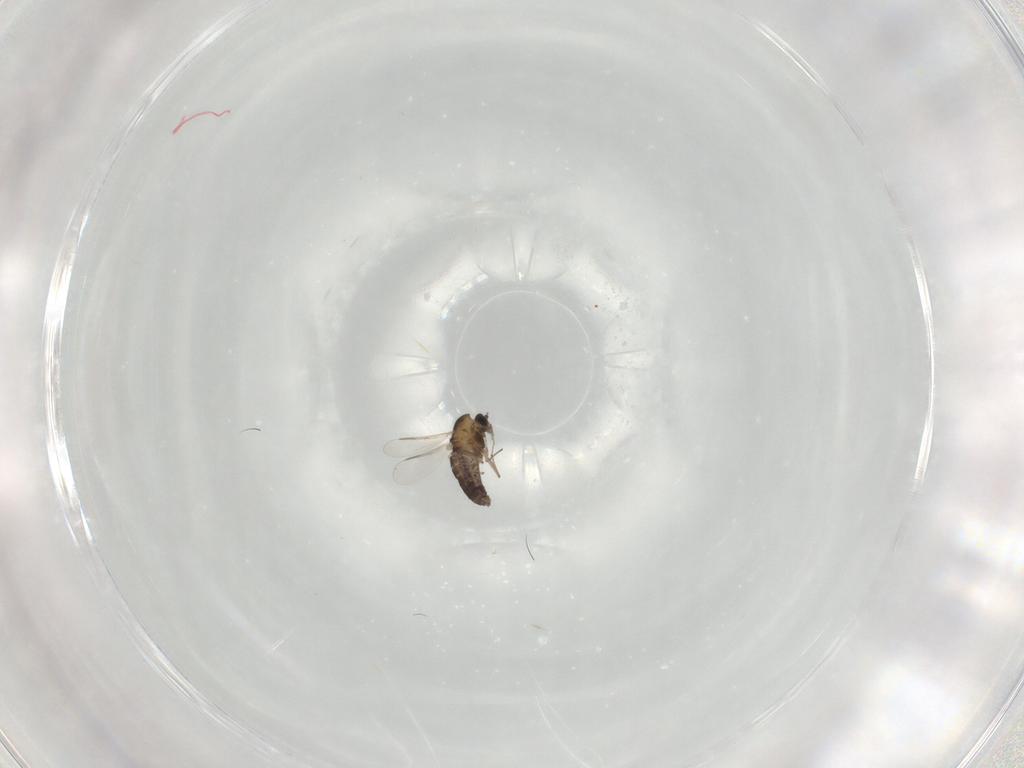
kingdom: Animalia
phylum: Arthropoda
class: Insecta
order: Diptera
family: Chironomidae
